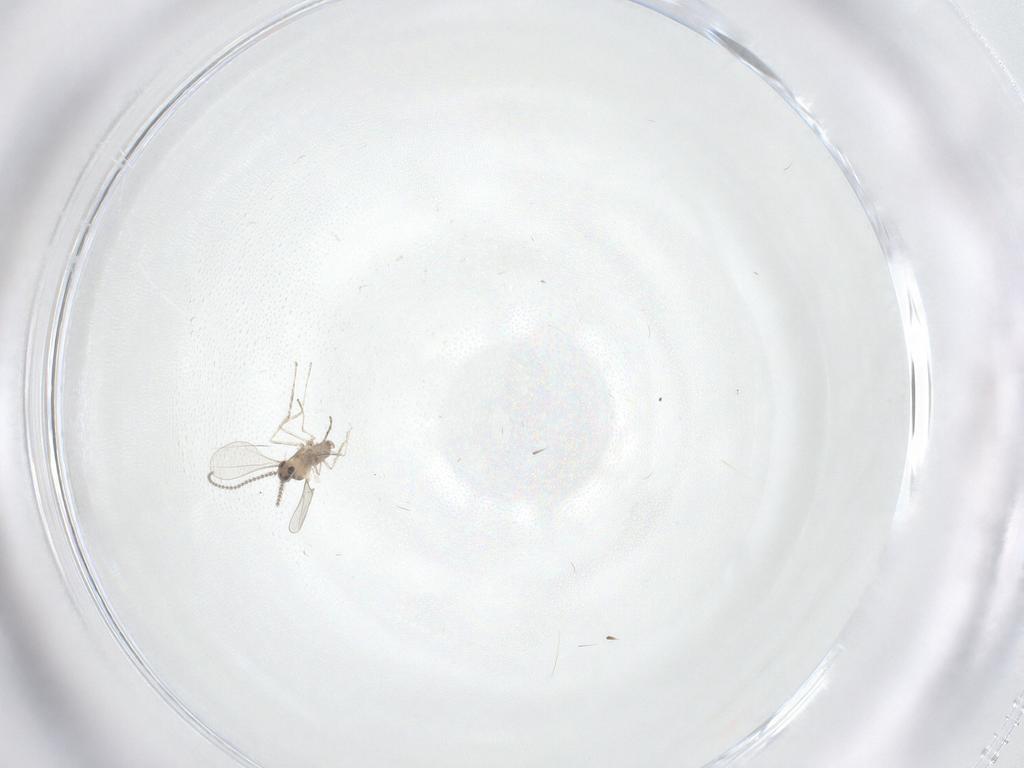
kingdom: Animalia
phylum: Arthropoda
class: Insecta
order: Diptera
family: Cecidomyiidae
